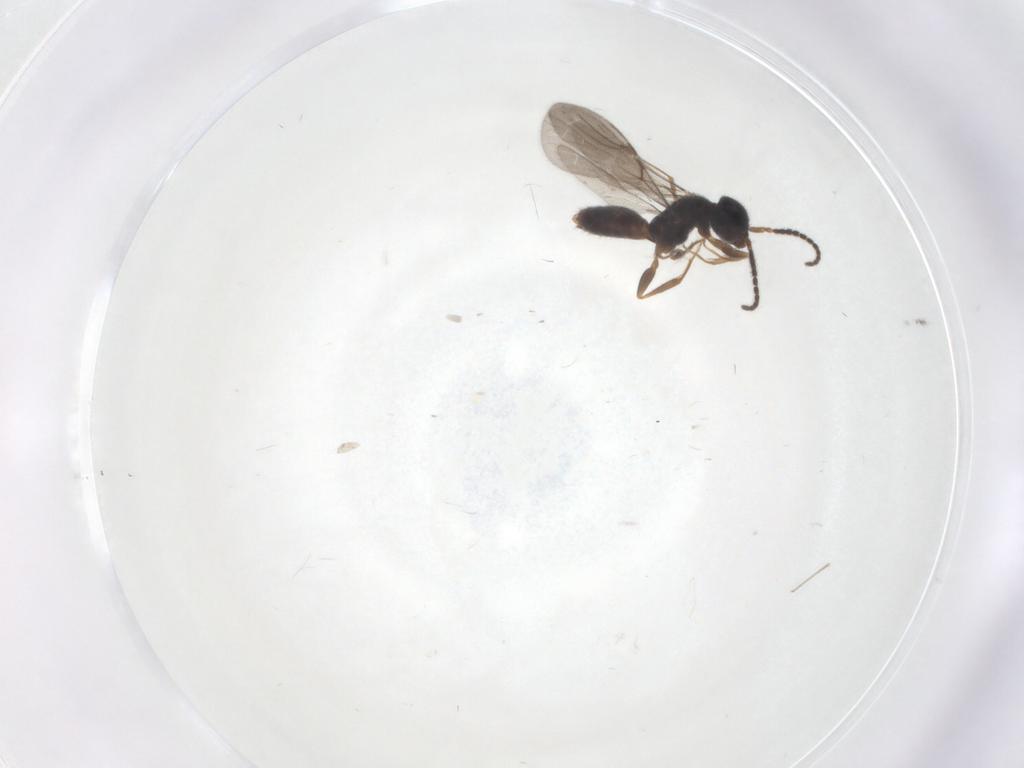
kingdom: Animalia
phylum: Arthropoda
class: Insecta
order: Hymenoptera
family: Bethylidae
